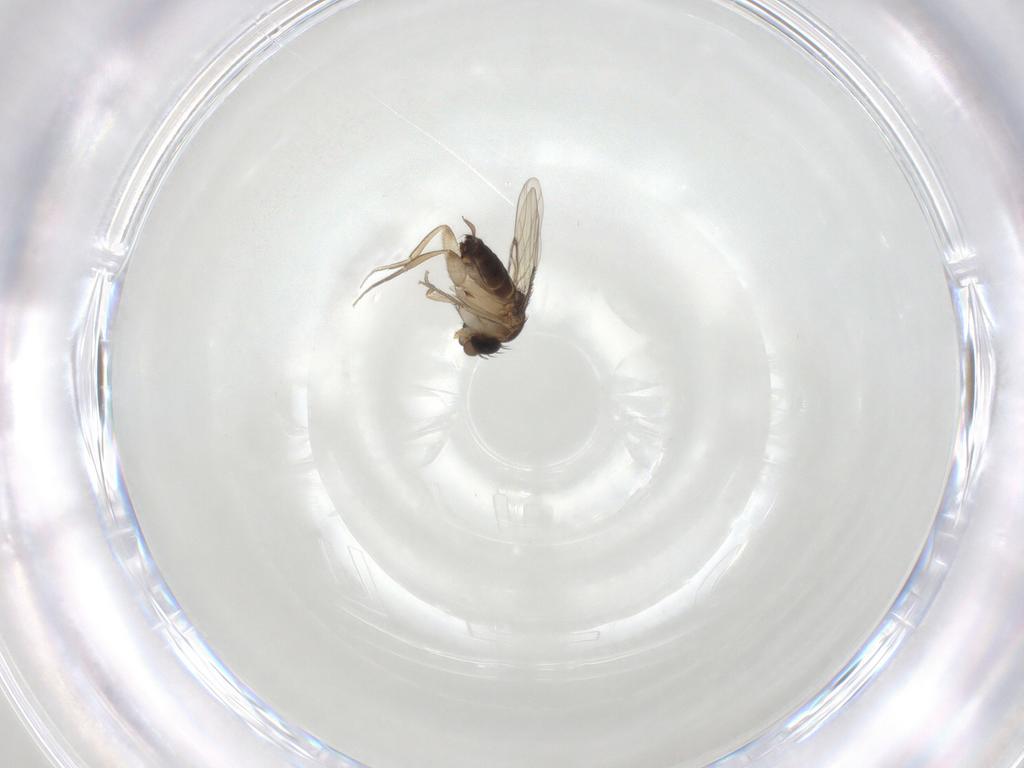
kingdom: Animalia
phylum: Arthropoda
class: Insecta
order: Diptera
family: Phoridae
